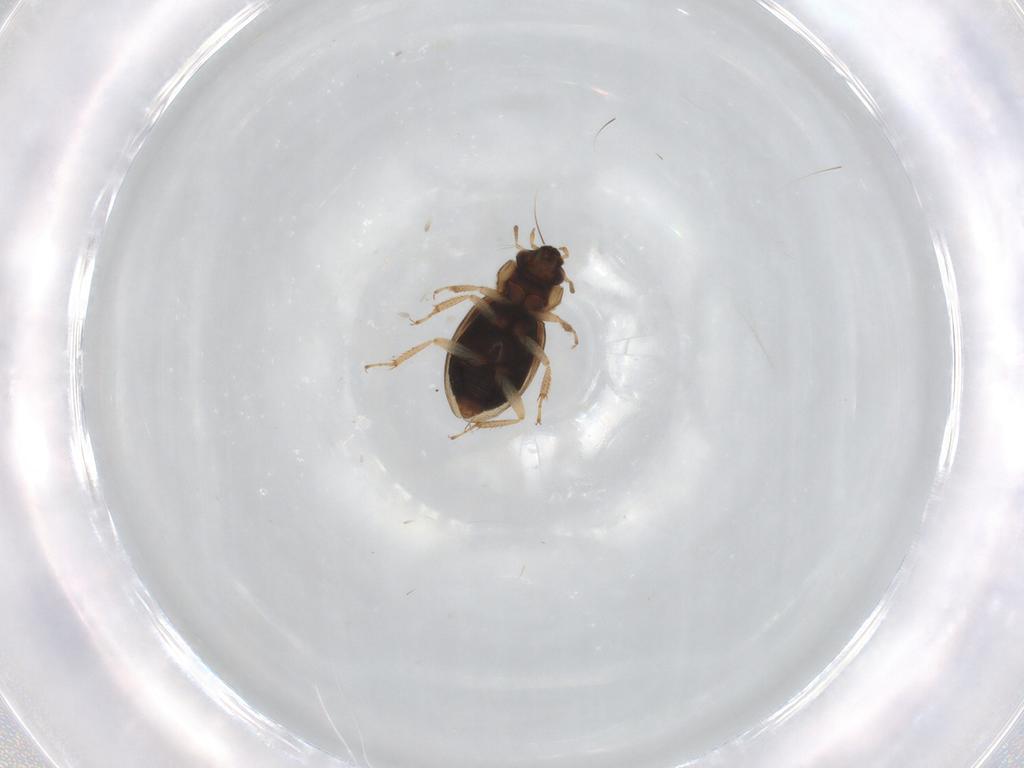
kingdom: Animalia
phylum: Arthropoda
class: Insecta
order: Coleoptera
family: Hydraenidae
